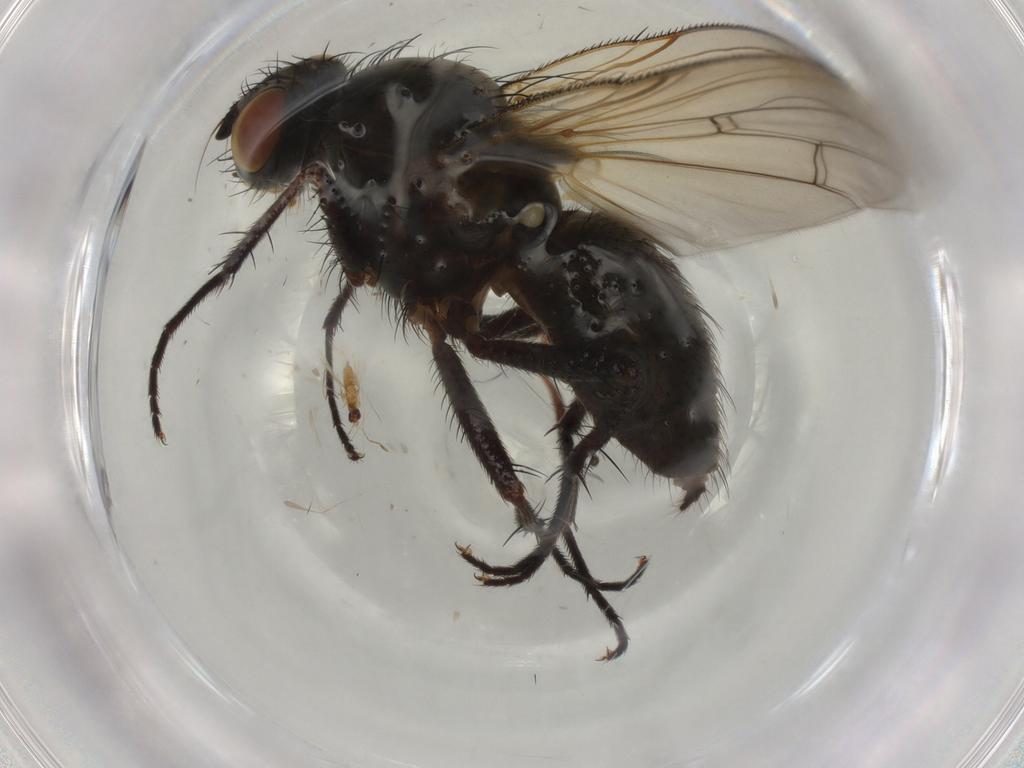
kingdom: Animalia
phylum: Arthropoda
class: Insecta
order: Diptera
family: Anthomyiidae
